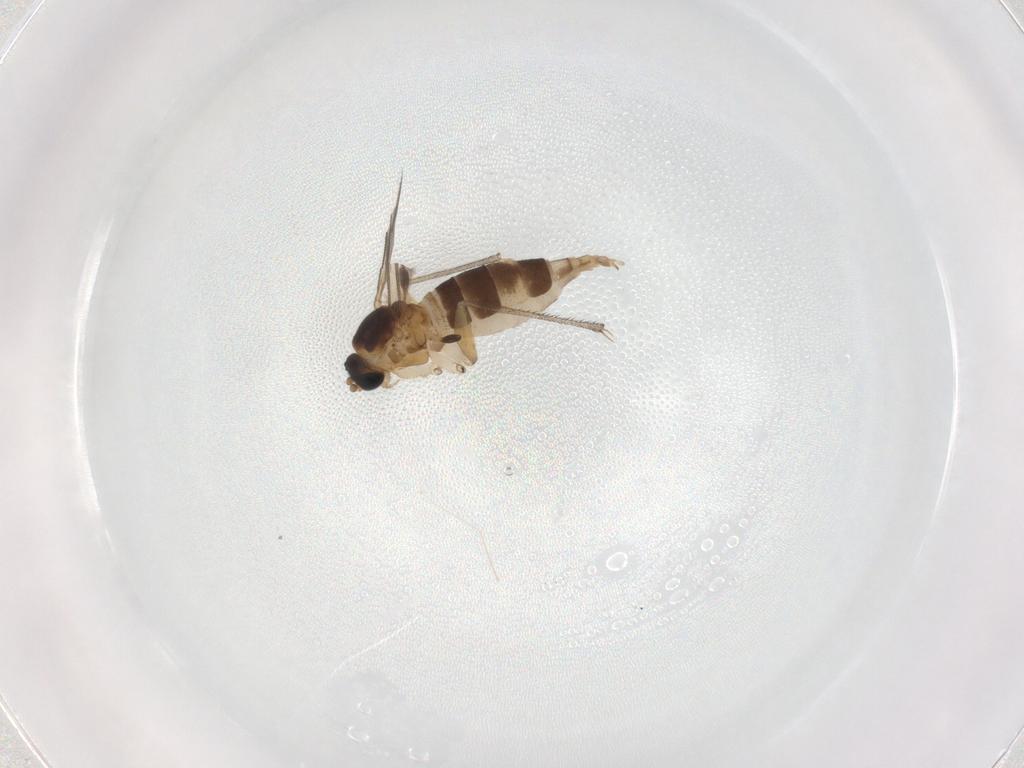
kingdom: Animalia
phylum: Arthropoda
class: Insecta
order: Diptera
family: Sciaridae
